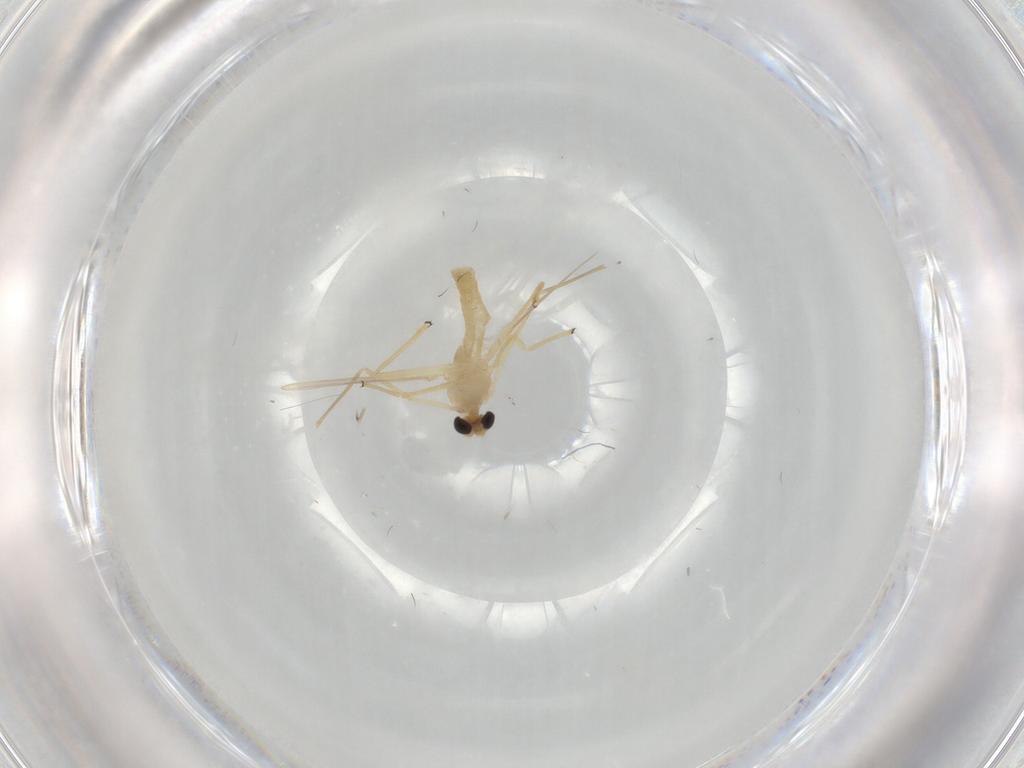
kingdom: Animalia
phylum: Arthropoda
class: Insecta
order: Diptera
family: Chironomidae
